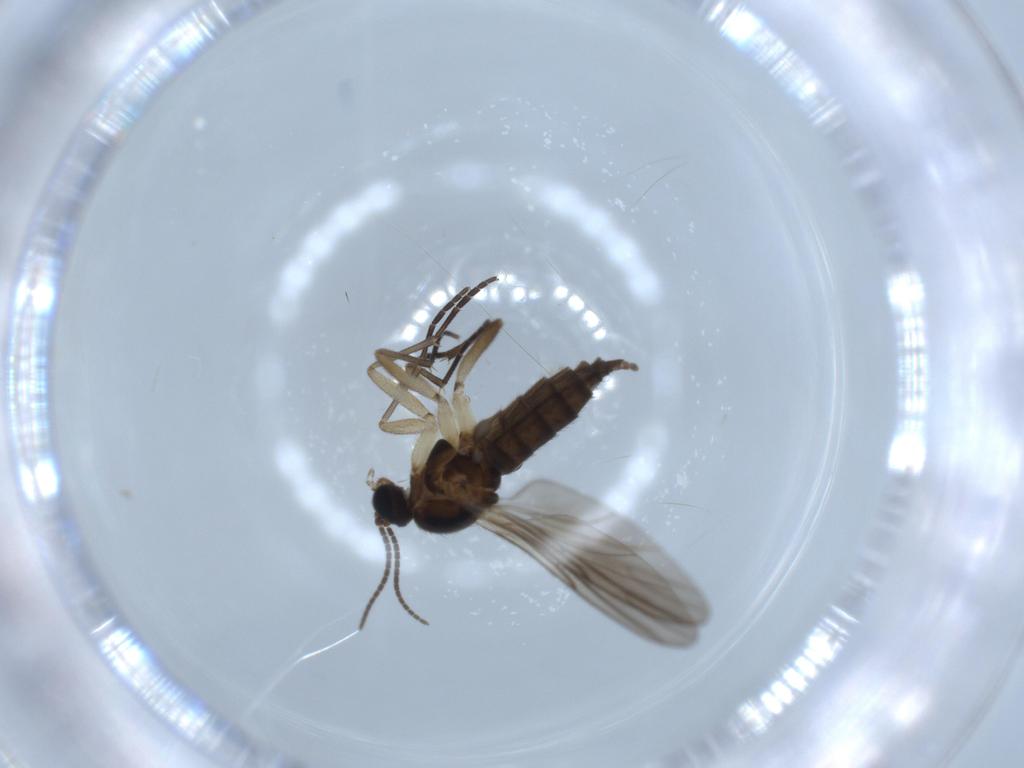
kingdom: Animalia
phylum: Arthropoda
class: Insecta
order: Diptera
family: Sciaridae
